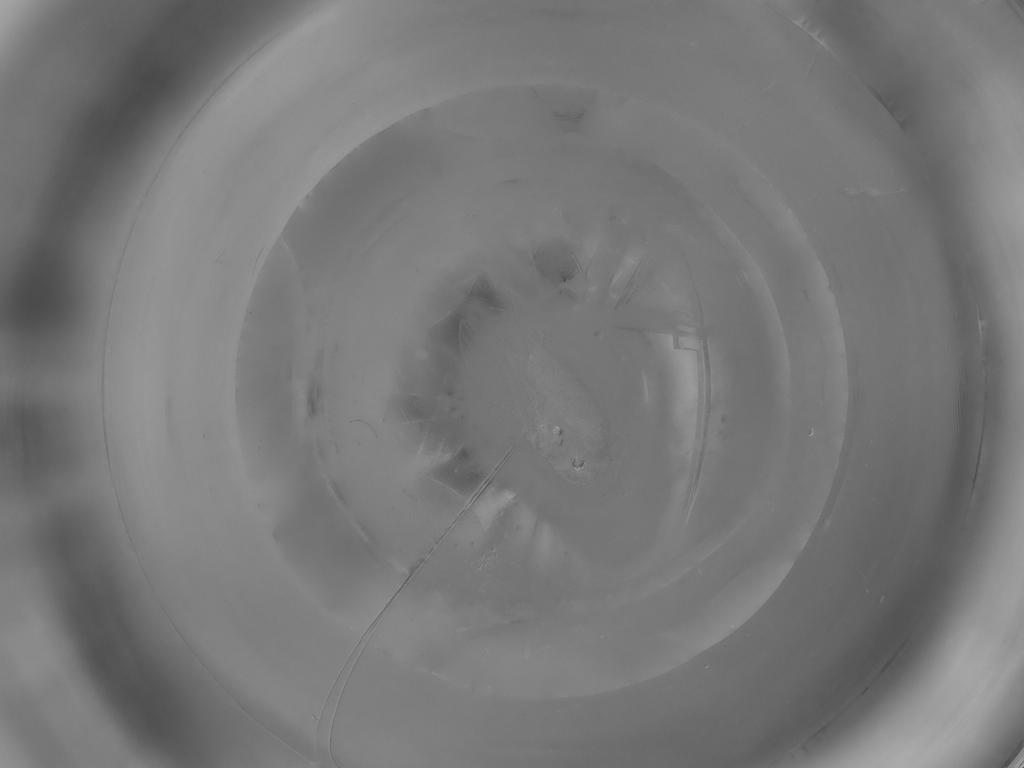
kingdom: Animalia
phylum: Arthropoda
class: Insecta
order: Diptera
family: Psychodidae
